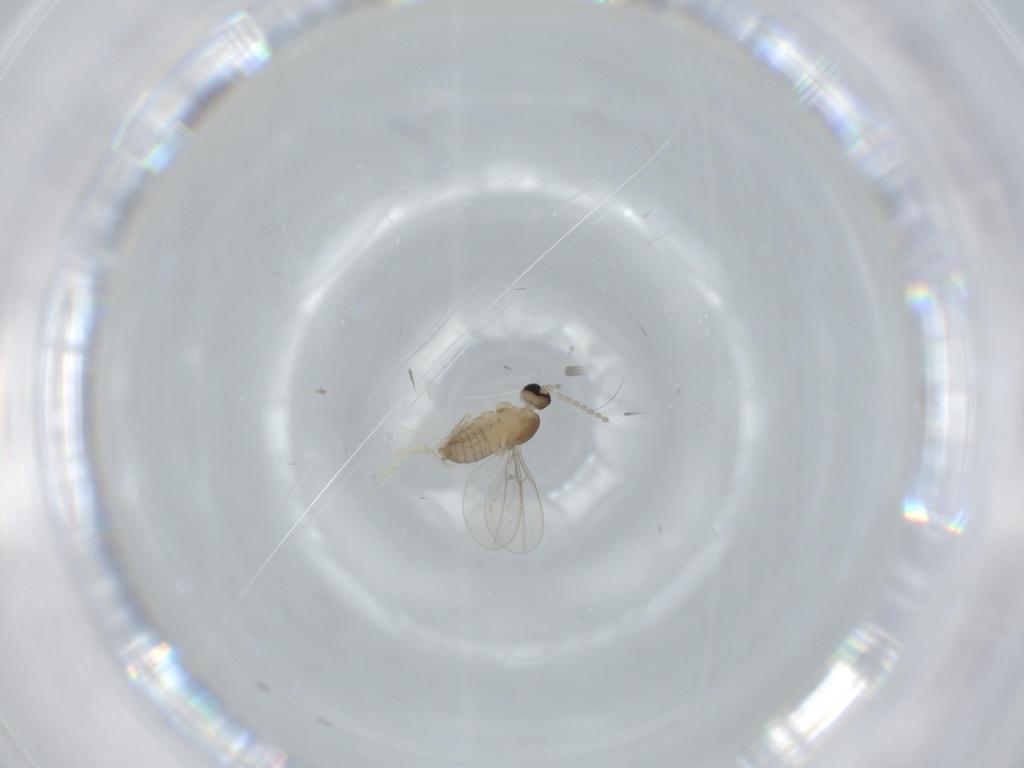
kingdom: Animalia
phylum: Arthropoda
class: Insecta
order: Diptera
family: Cecidomyiidae
